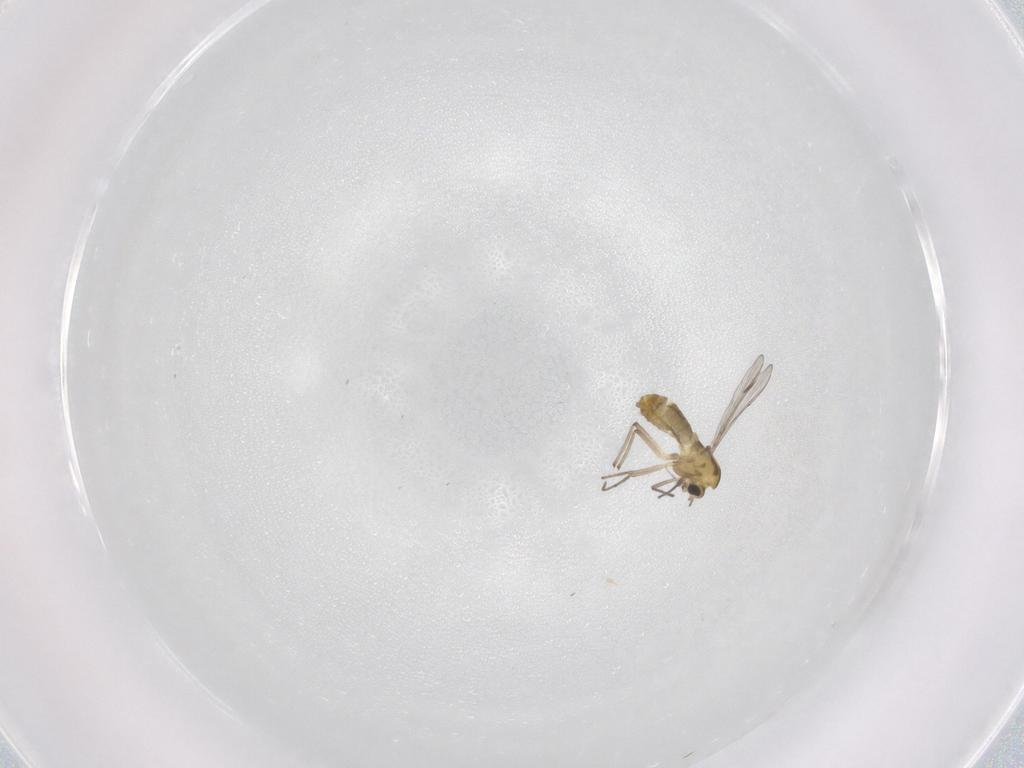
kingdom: Animalia
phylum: Arthropoda
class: Insecta
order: Diptera
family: Chironomidae
